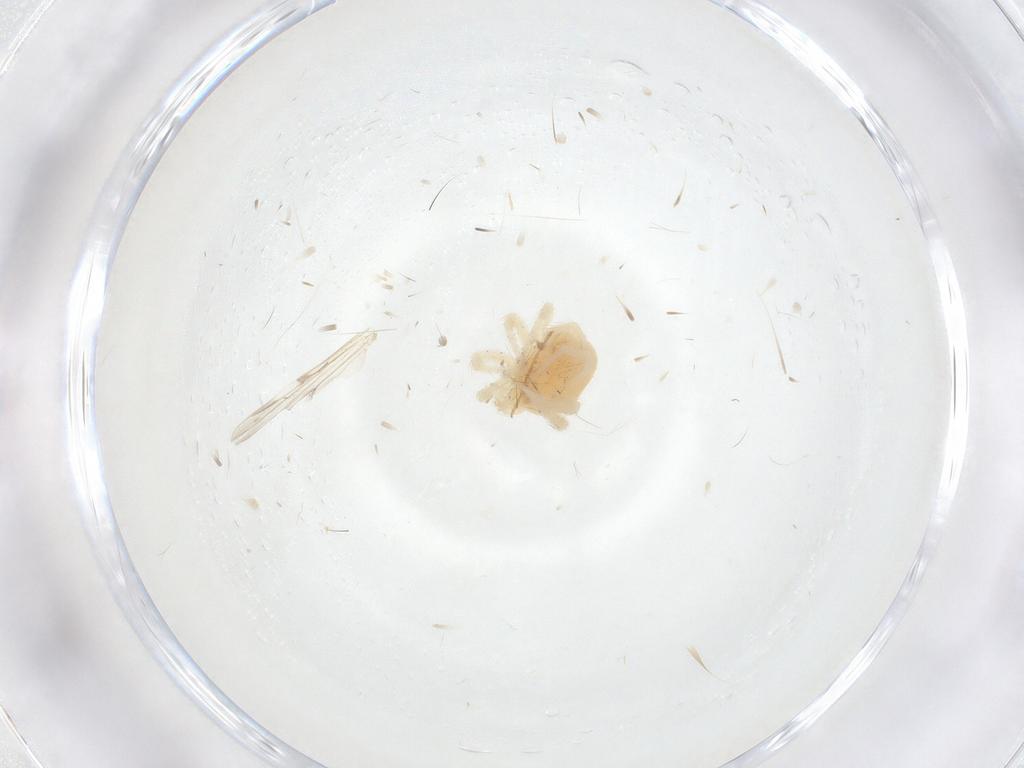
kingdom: Animalia
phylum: Arthropoda
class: Arachnida
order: Trombidiformes
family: Anystidae
